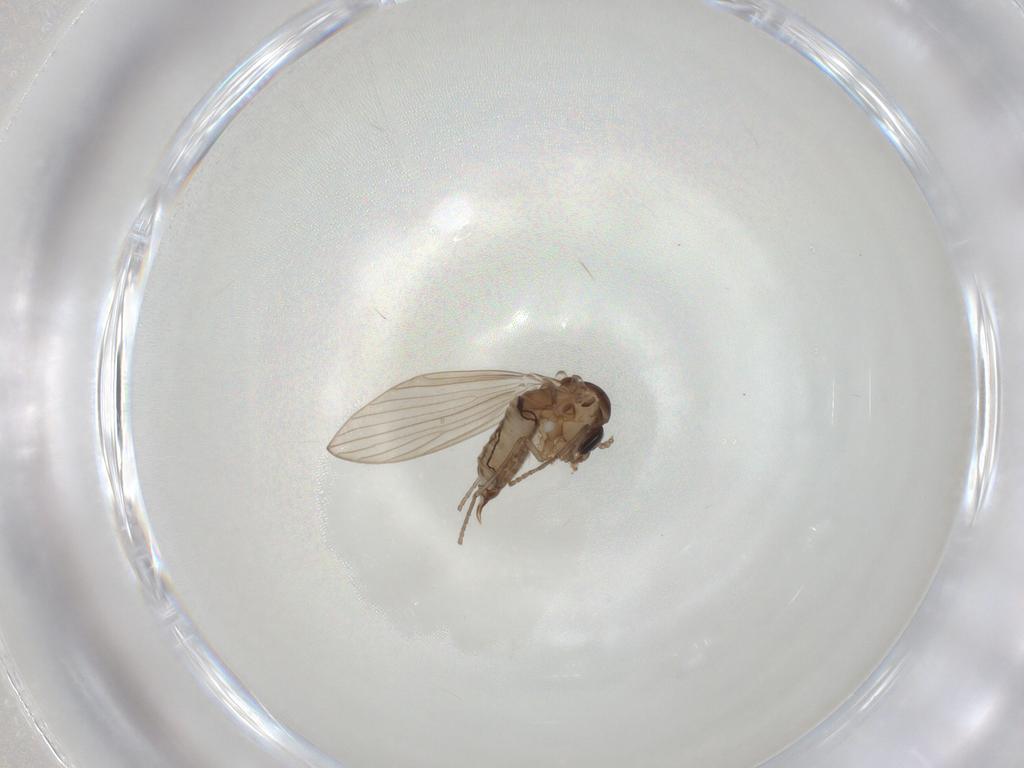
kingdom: Animalia
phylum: Arthropoda
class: Insecta
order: Diptera
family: Psychodidae
